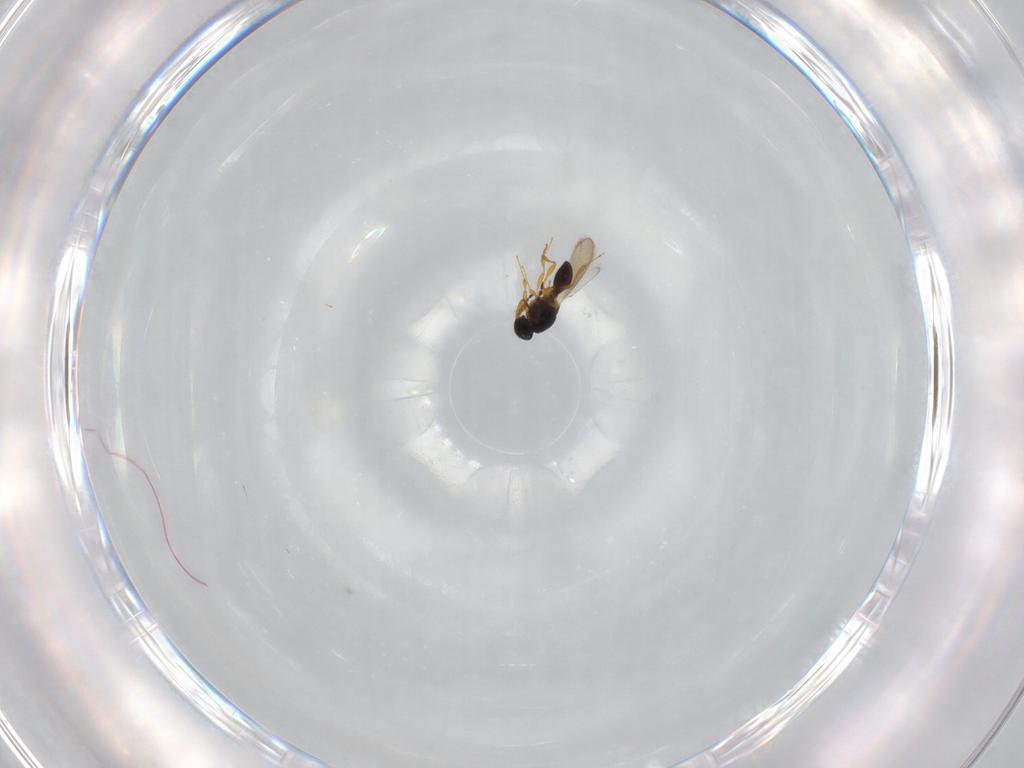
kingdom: Animalia
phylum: Arthropoda
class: Insecta
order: Hymenoptera
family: Platygastridae
